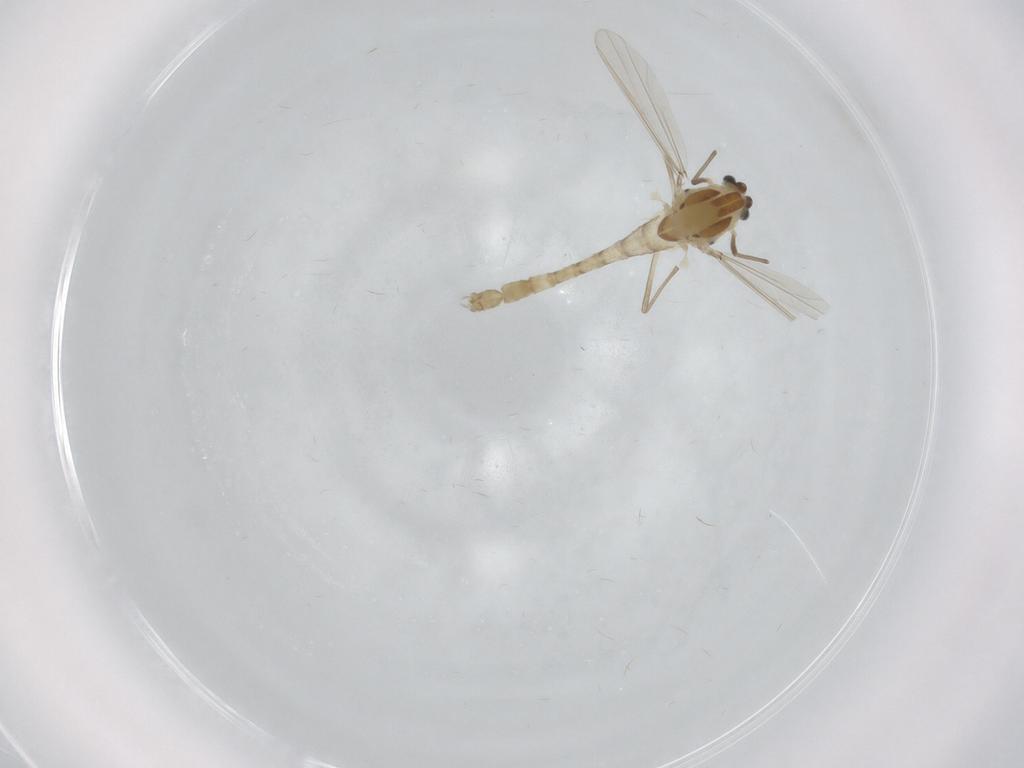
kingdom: Animalia
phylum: Arthropoda
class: Insecta
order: Diptera
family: Chironomidae
